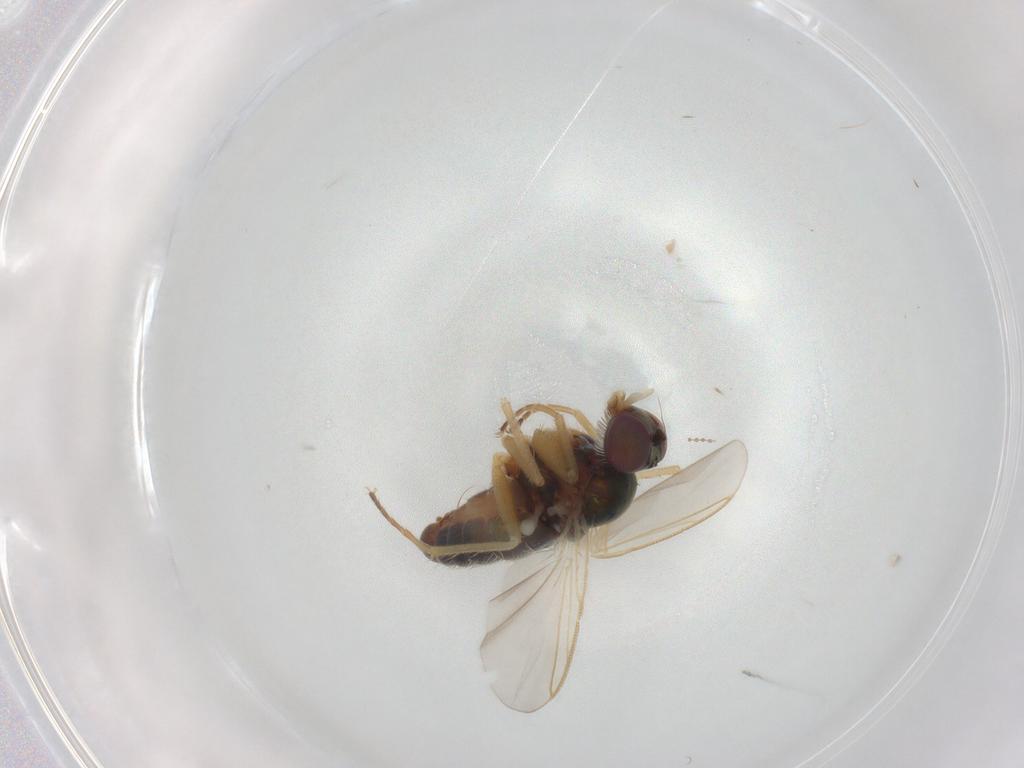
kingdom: Animalia
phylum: Arthropoda
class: Insecta
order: Diptera
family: Dolichopodidae
